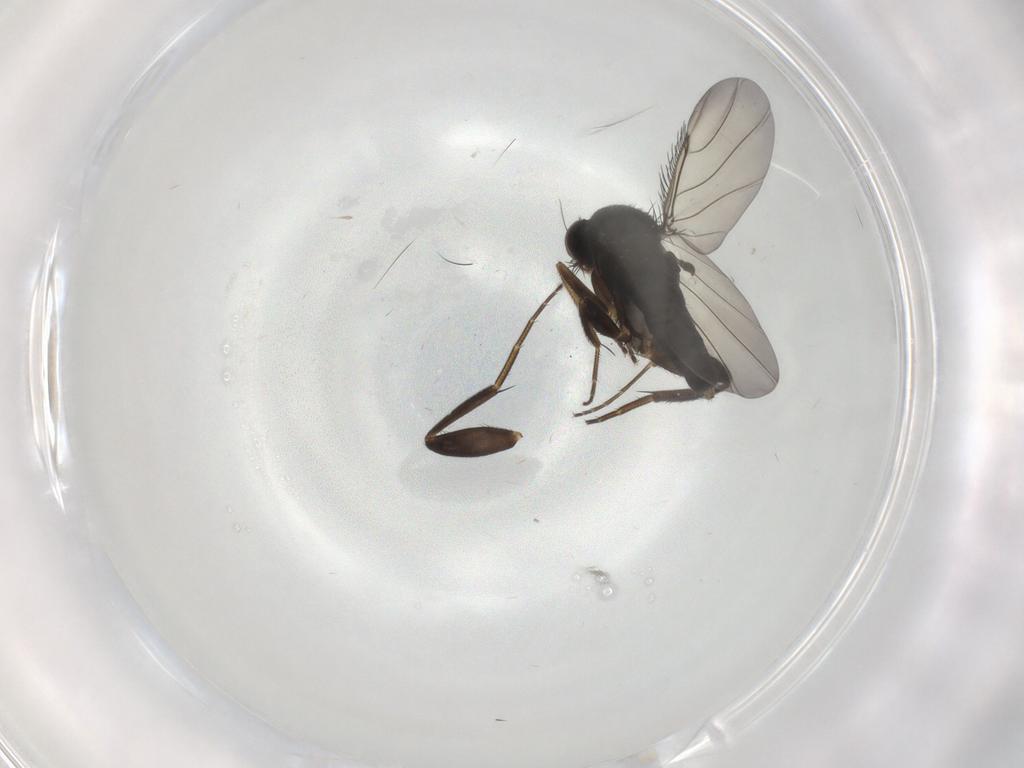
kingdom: Animalia
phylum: Arthropoda
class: Insecta
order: Diptera
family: Phoridae
